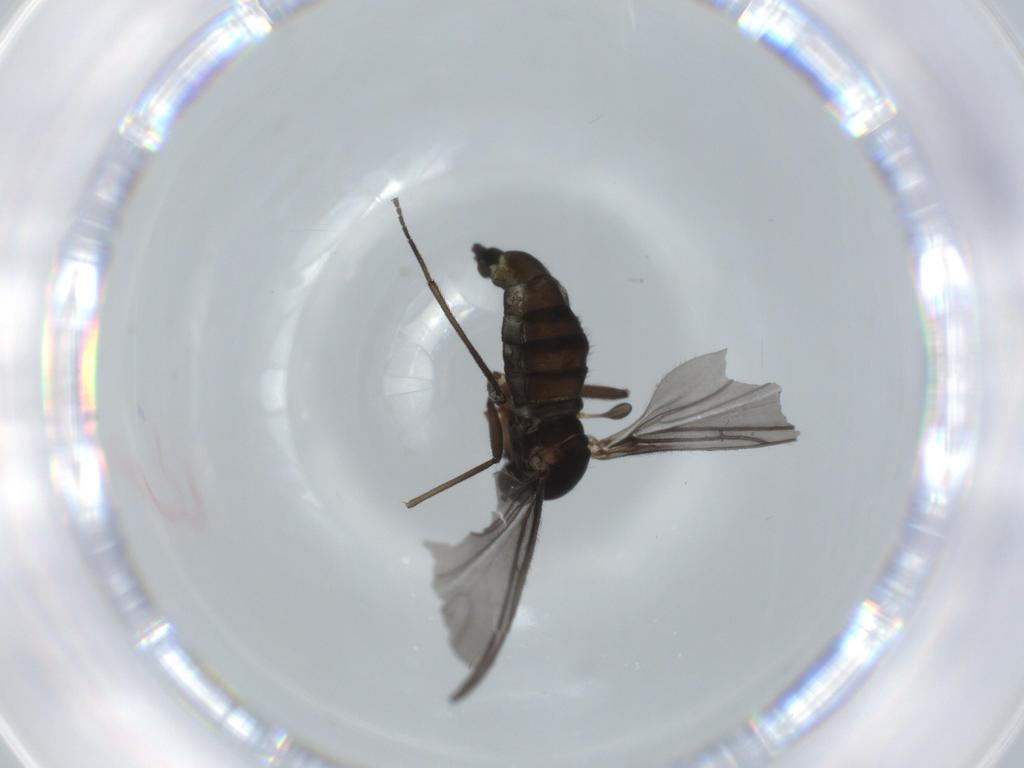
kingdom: Animalia
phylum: Arthropoda
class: Insecta
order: Diptera
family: Sciaridae
